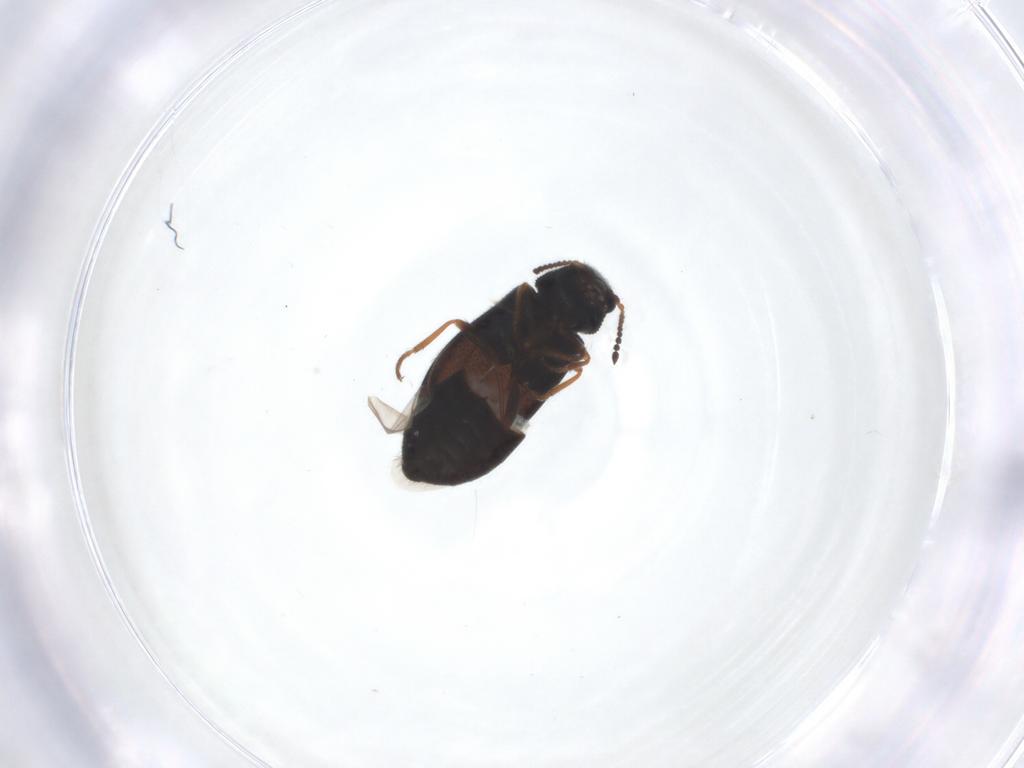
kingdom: Animalia
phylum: Arthropoda
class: Insecta
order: Coleoptera
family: Melyridae
